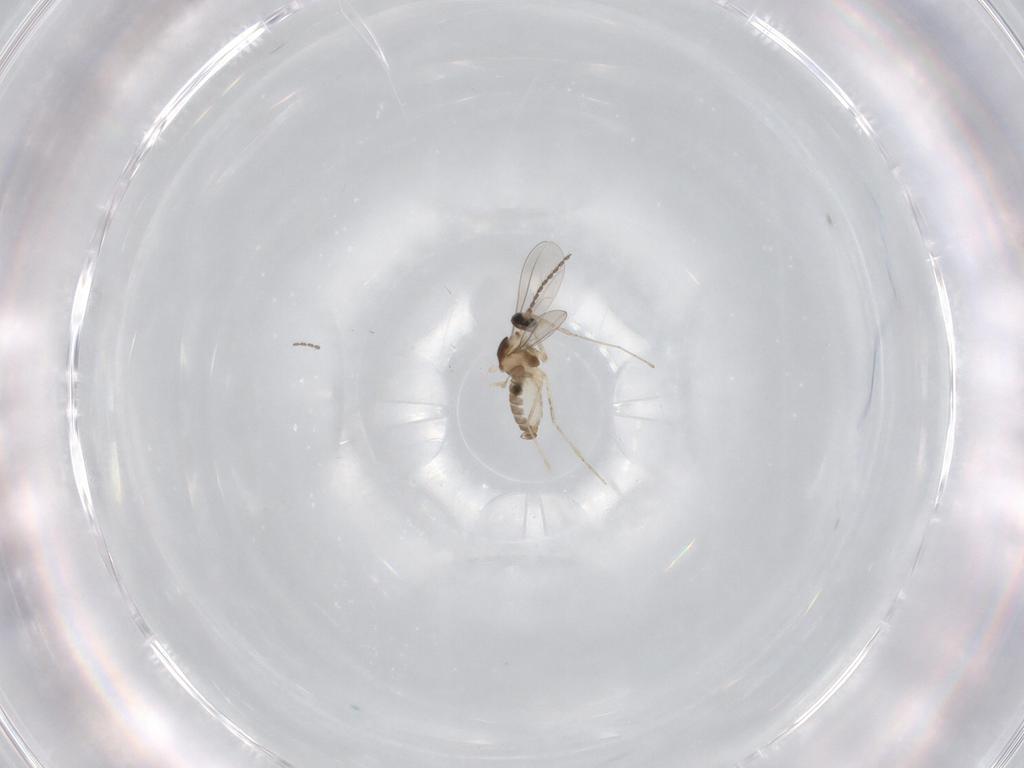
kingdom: Animalia
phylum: Arthropoda
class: Insecta
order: Diptera
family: Cecidomyiidae
